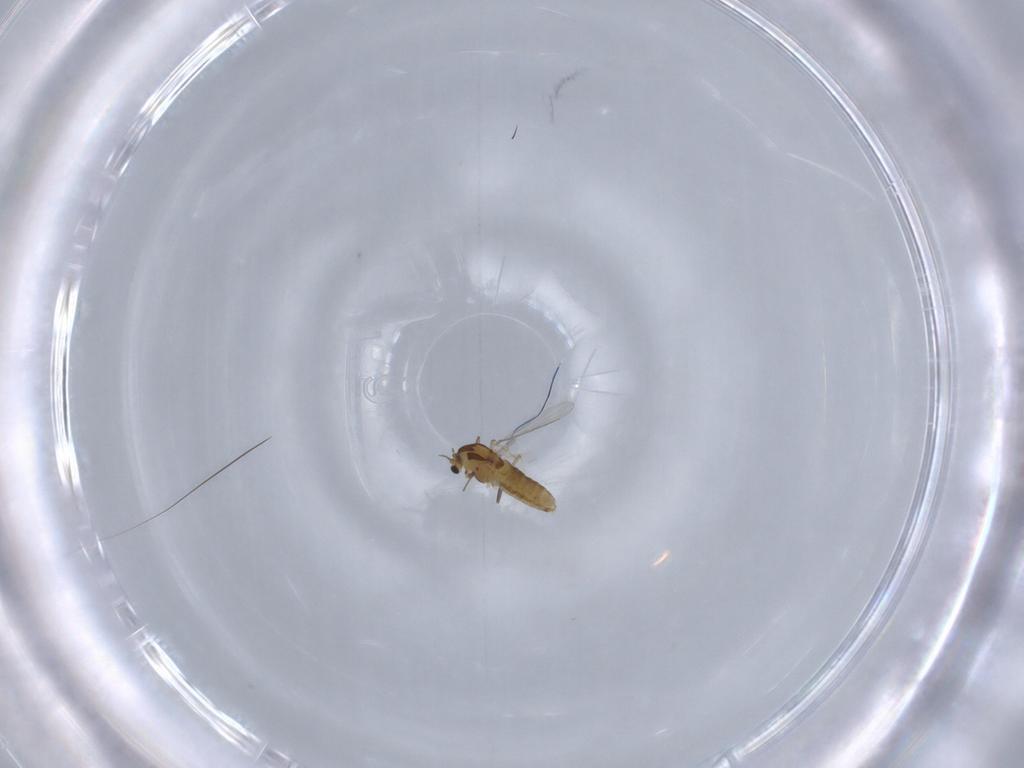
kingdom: Animalia
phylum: Arthropoda
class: Insecta
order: Diptera
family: Chironomidae
